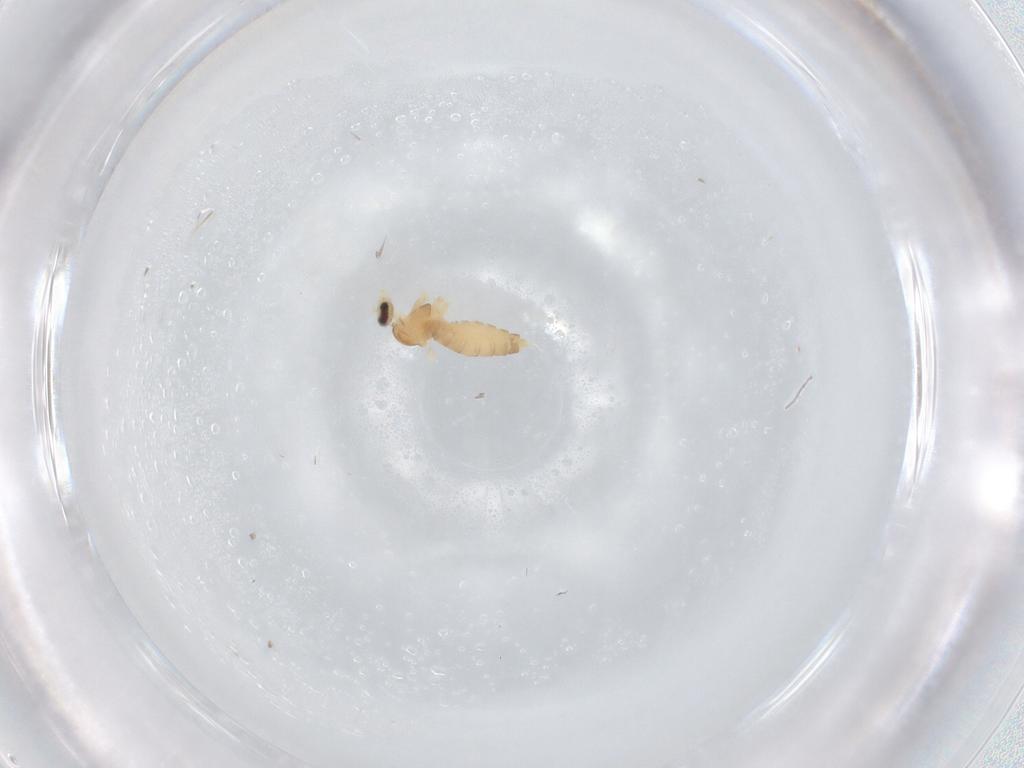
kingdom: Animalia
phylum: Arthropoda
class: Insecta
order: Diptera
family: Cecidomyiidae
